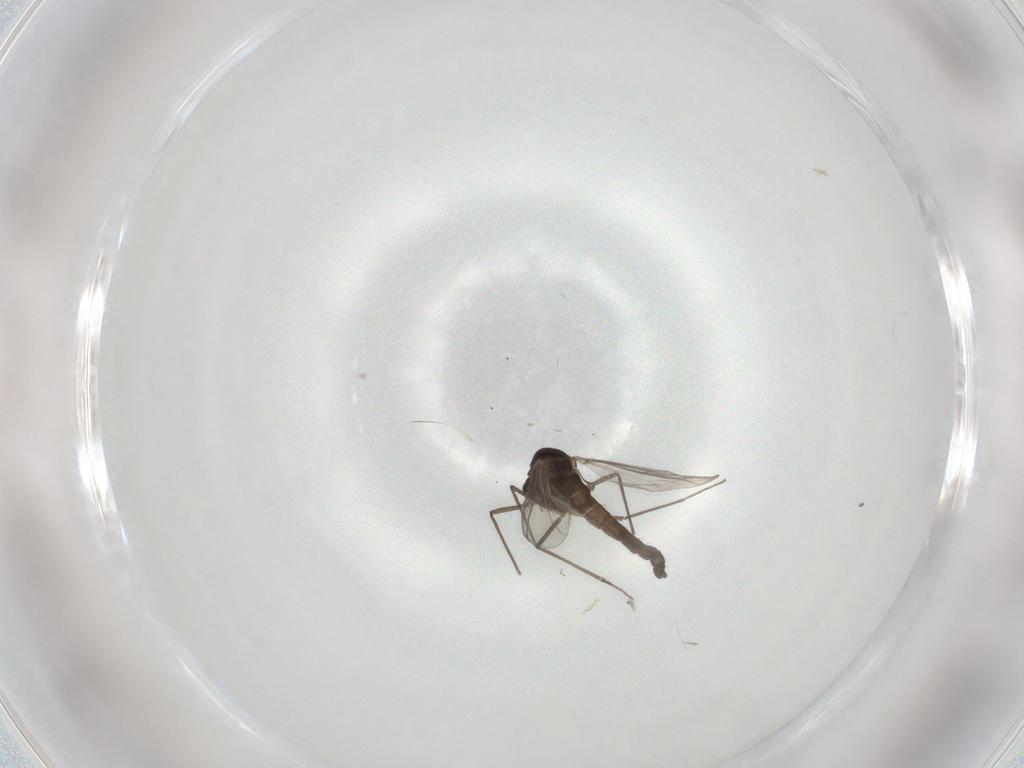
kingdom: Animalia
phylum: Arthropoda
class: Insecta
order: Diptera
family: Chironomidae
